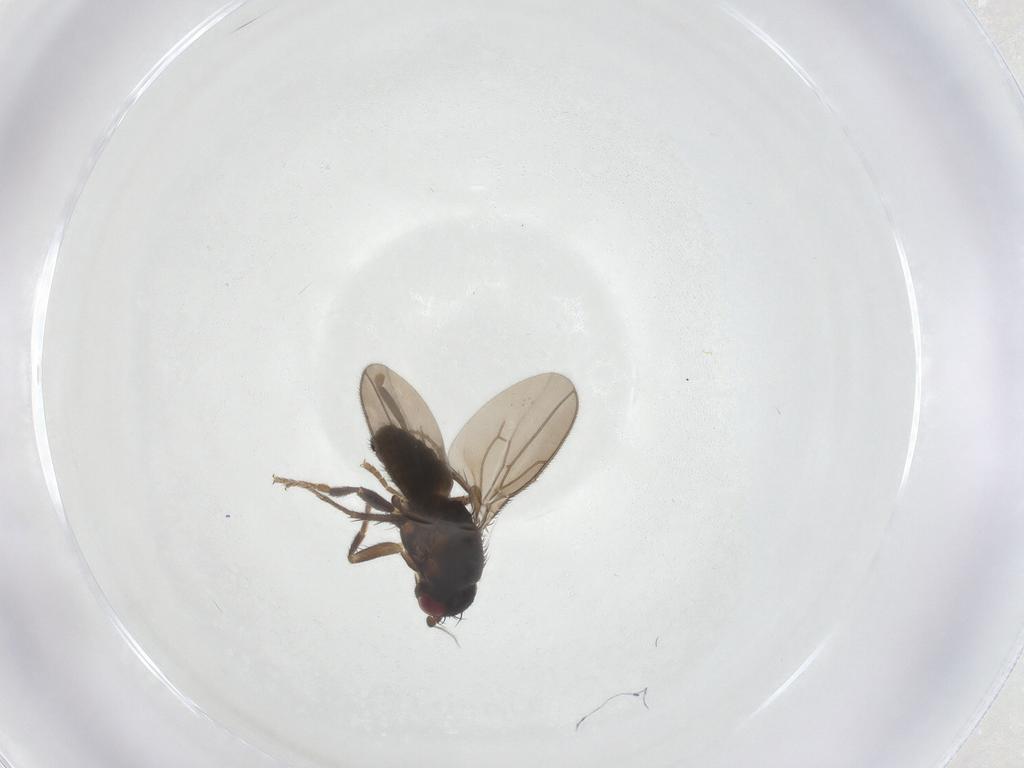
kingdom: Animalia
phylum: Arthropoda
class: Insecta
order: Diptera
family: Sphaeroceridae
